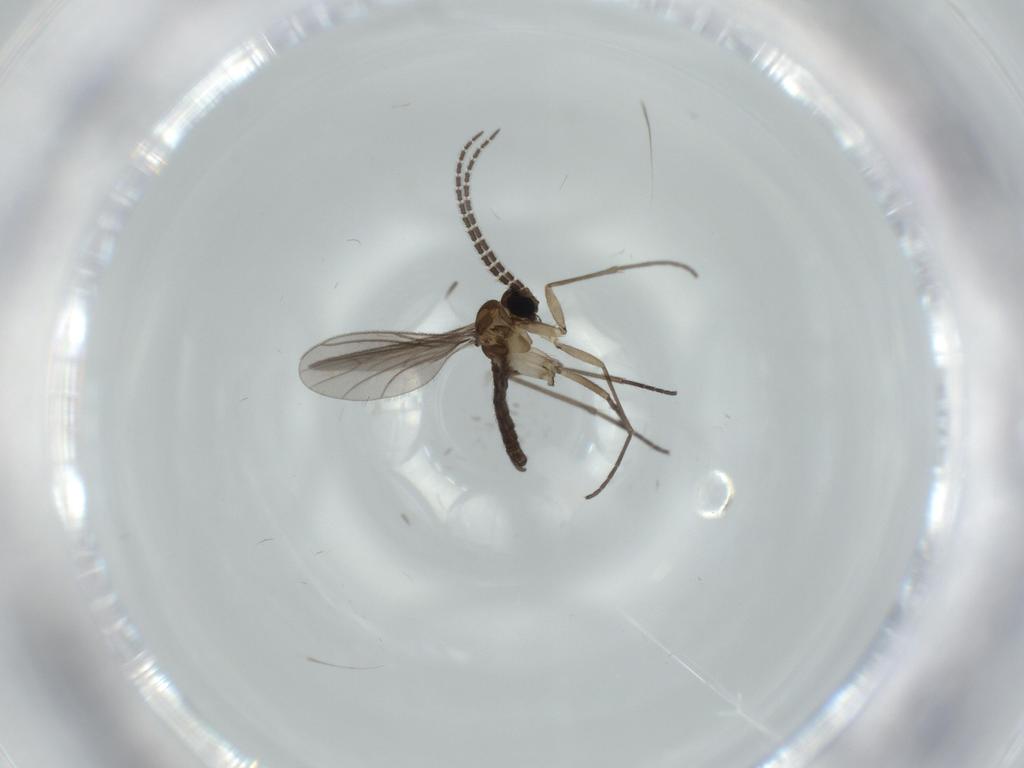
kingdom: Animalia
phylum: Arthropoda
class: Insecta
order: Diptera
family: Sciaridae
